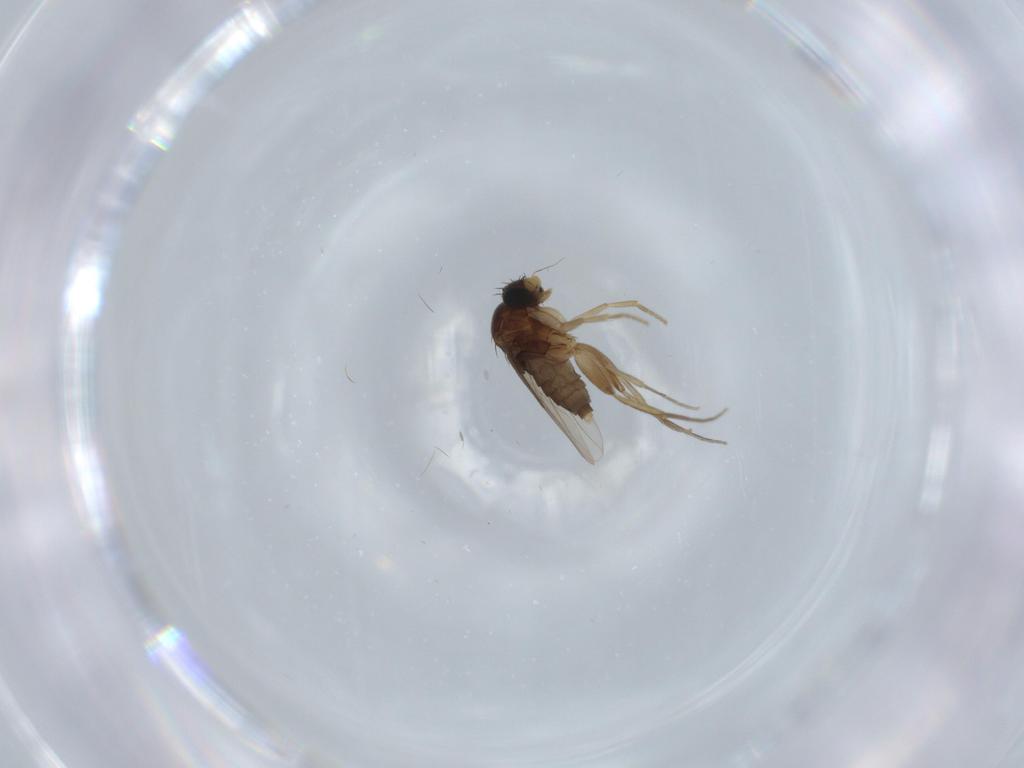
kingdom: Animalia
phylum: Arthropoda
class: Insecta
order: Diptera
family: Phoridae
